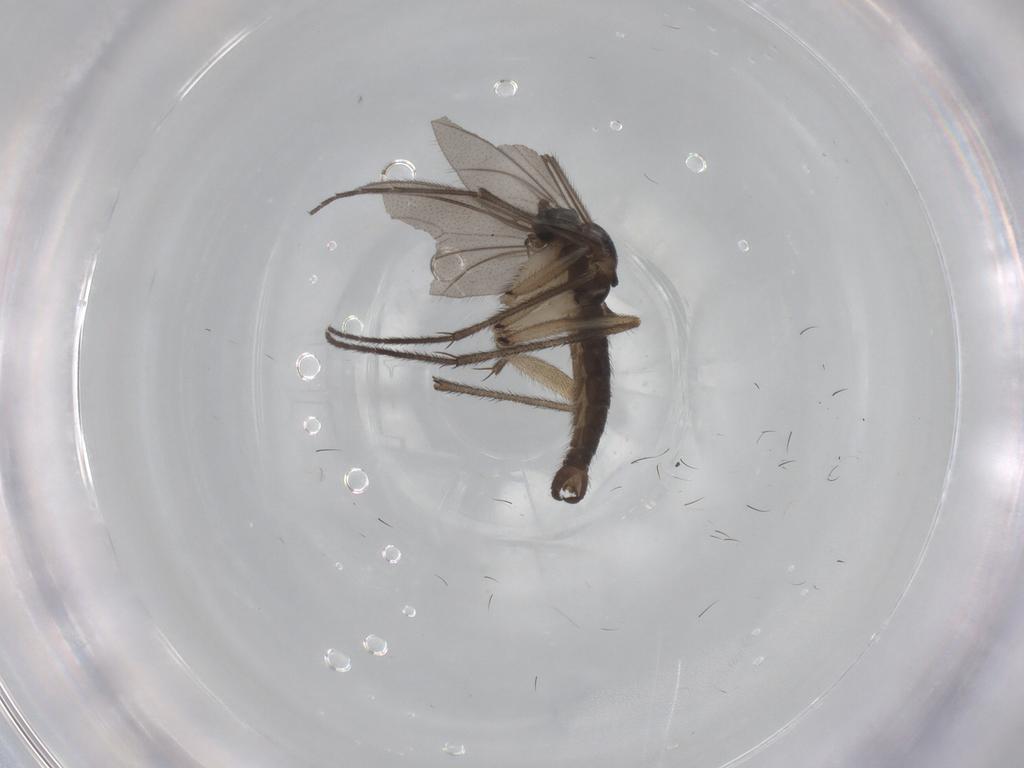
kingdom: Animalia
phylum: Arthropoda
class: Insecta
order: Diptera
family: Sciaridae
